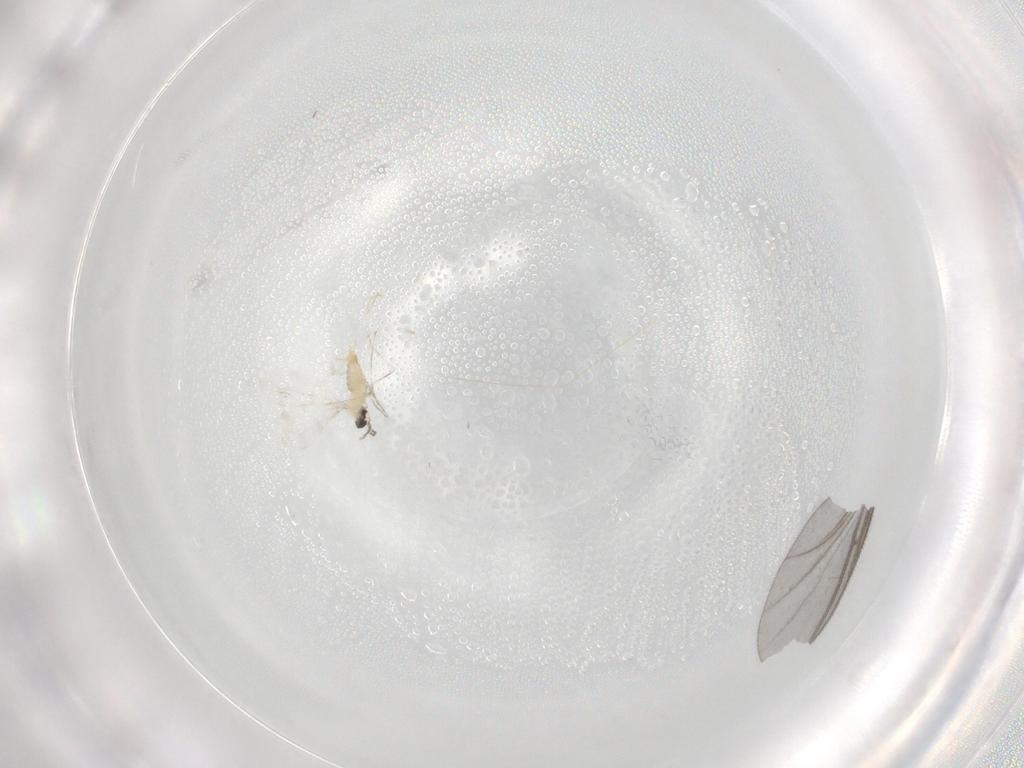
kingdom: Animalia
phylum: Arthropoda
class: Insecta
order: Diptera
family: Sciaridae
